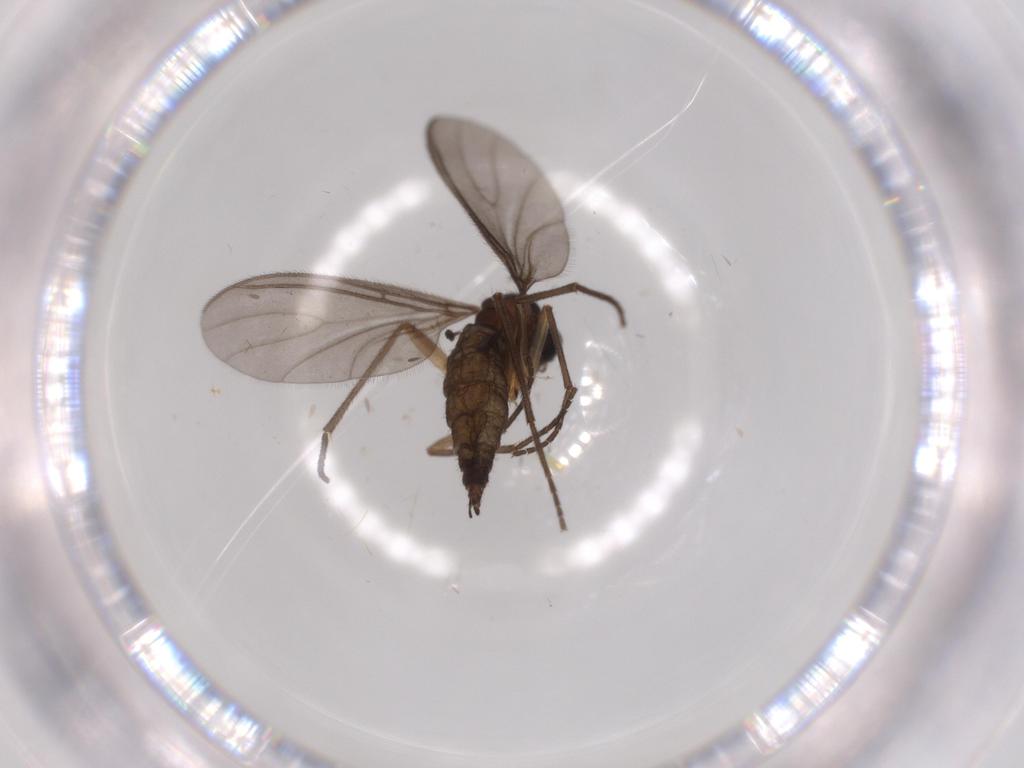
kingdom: Animalia
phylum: Arthropoda
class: Insecta
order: Diptera
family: Sciaridae
